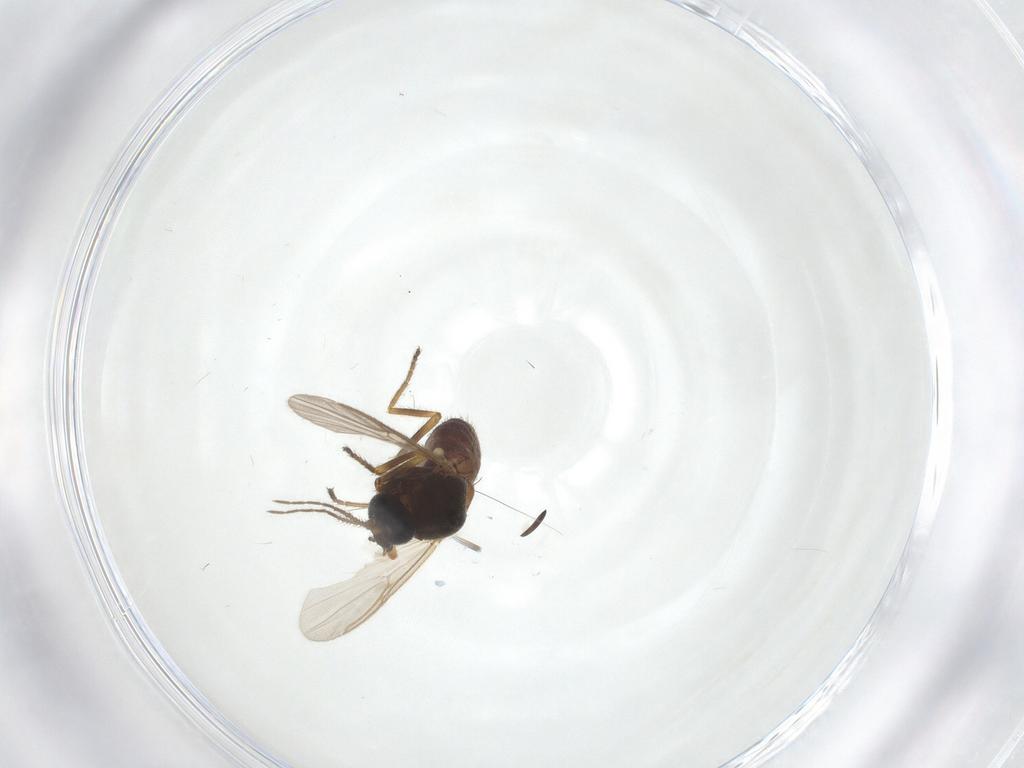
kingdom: Animalia
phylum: Arthropoda
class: Insecta
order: Diptera
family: Ceratopogonidae
